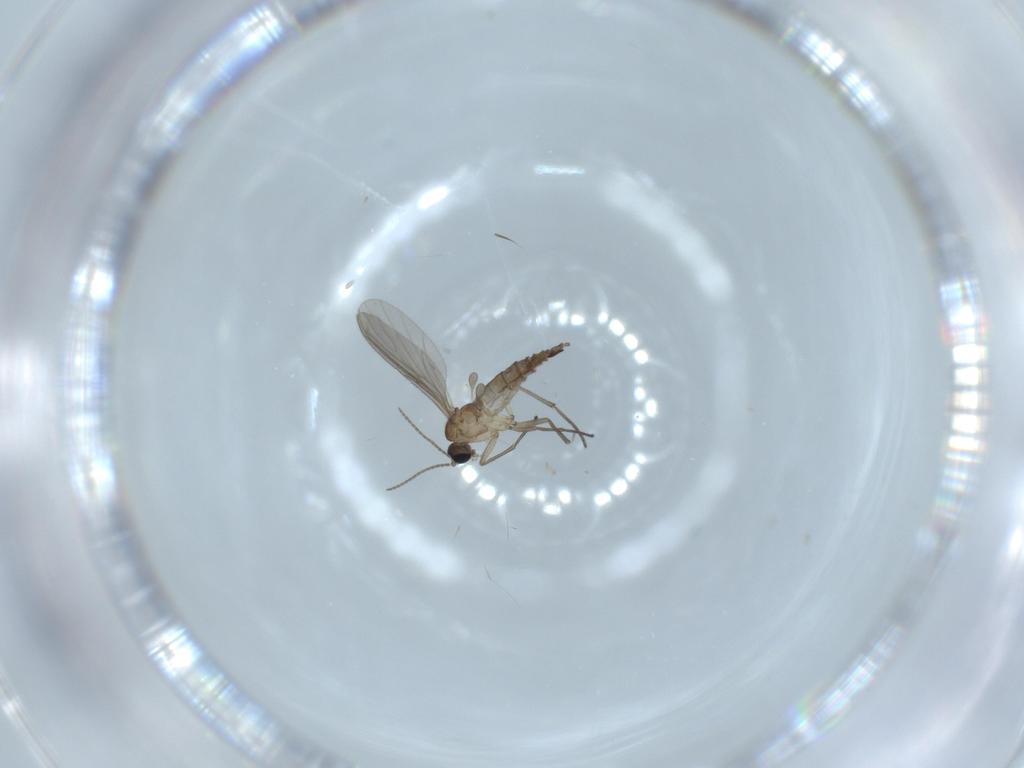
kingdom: Animalia
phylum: Arthropoda
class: Insecta
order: Diptera
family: Sciaridae
